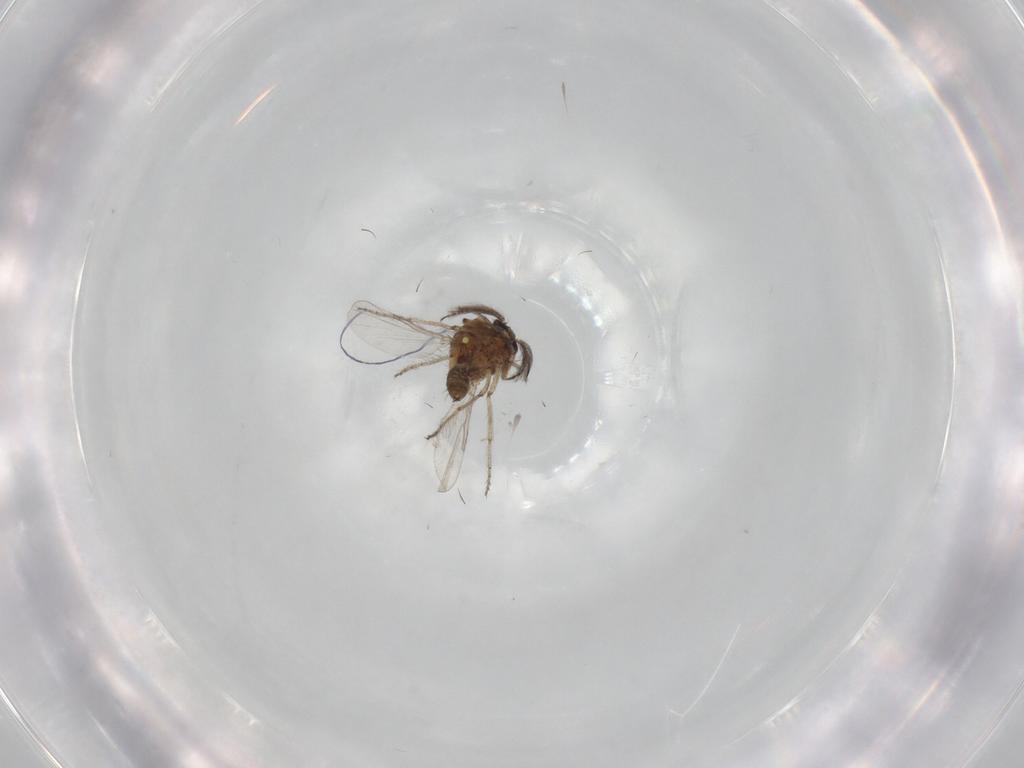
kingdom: Animalia
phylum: Arthropoda
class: Insecta
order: Diptera
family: Ceratopogonidae
